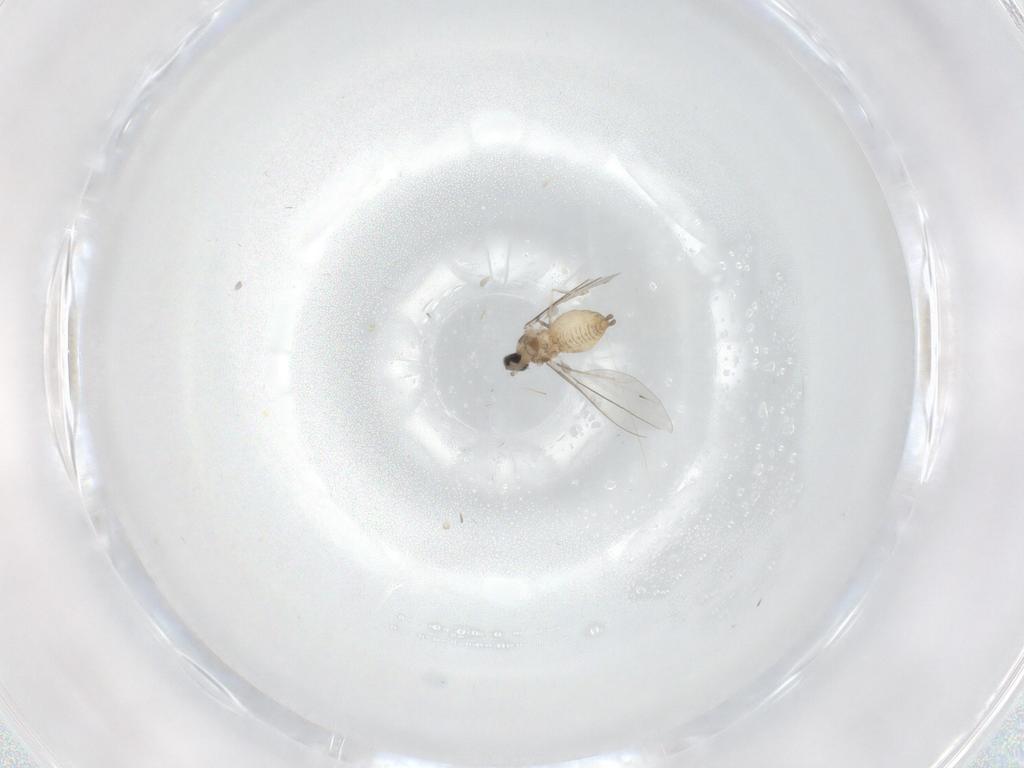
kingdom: Animalia
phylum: Arthropoda
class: Insecta
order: Diptera
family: Cecidomyiidae
